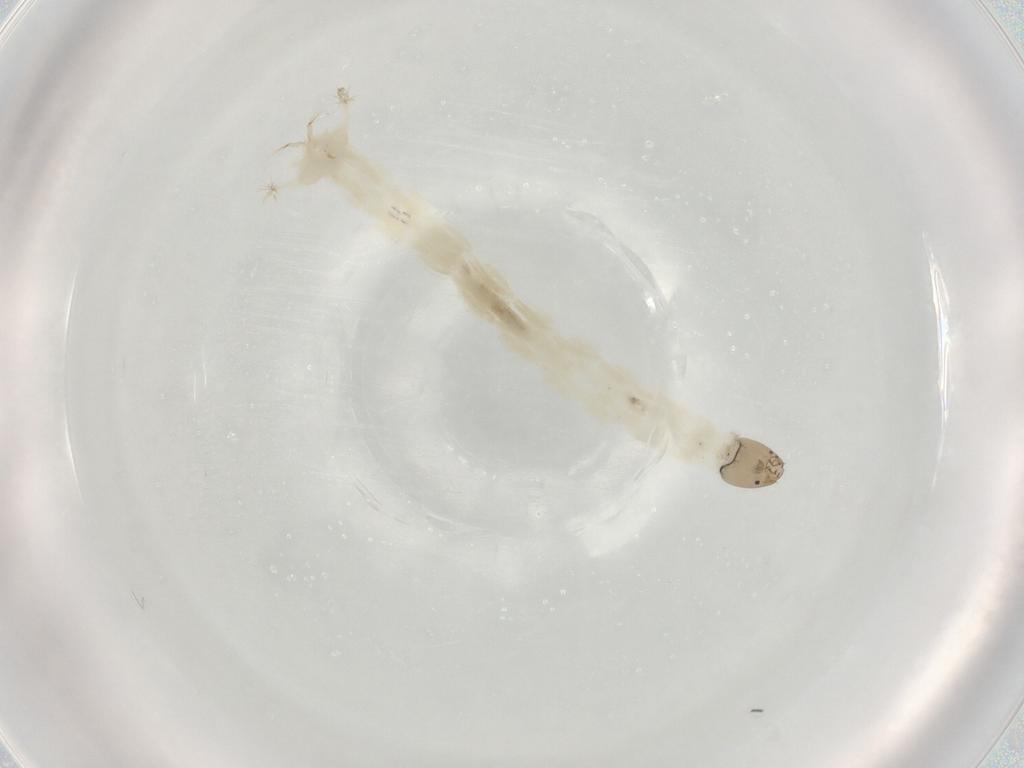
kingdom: Animalia
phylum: Arthropoda
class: Insecta
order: Diptera
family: Chironomidae
